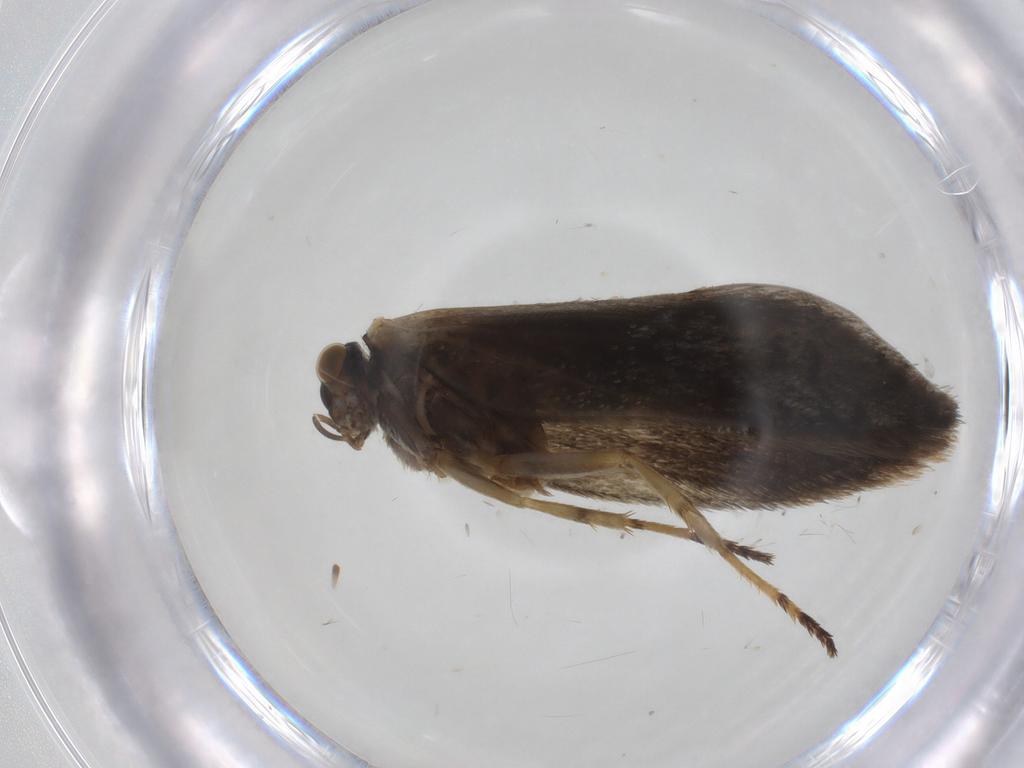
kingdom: Animalia
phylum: Arthropoda
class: Insecta
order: Lepidoptera
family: Micropterigidae
